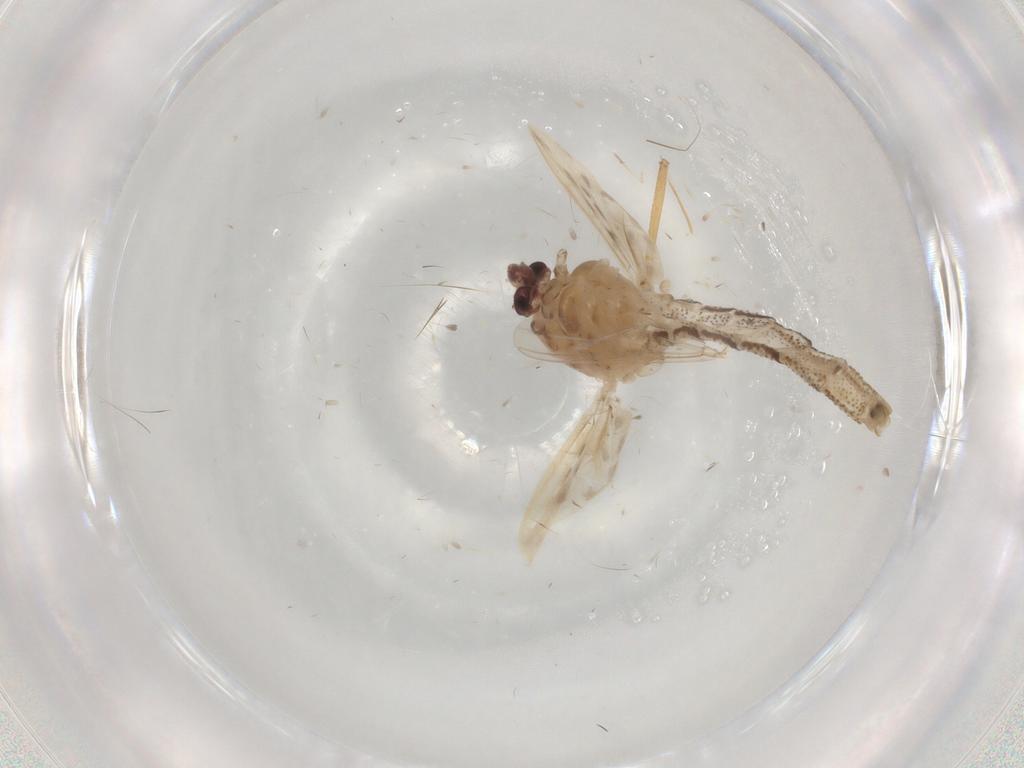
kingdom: Animalia
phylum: Arthropoda
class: Insecta
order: Diptera
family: Chaoboridae
